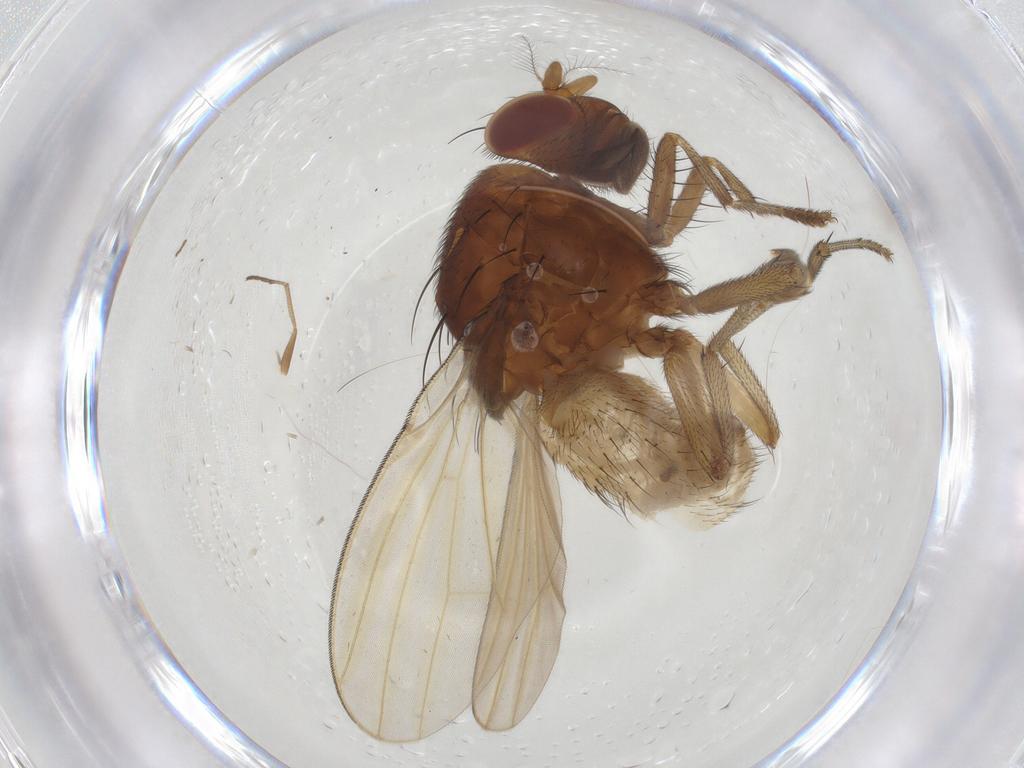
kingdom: Animalia
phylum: Arthropoda
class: Insecta
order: Diptera
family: Lauxaniidae
